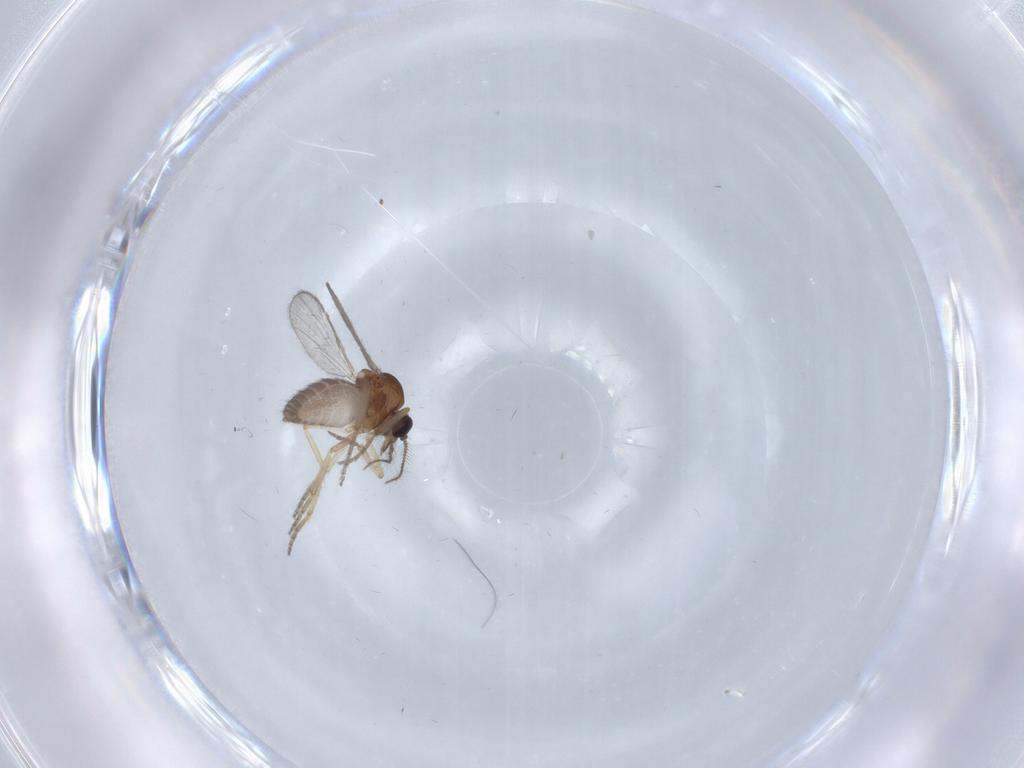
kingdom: Animalia
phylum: Arthropoda
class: Insecta
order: Diptera
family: Ceratopogonidae
